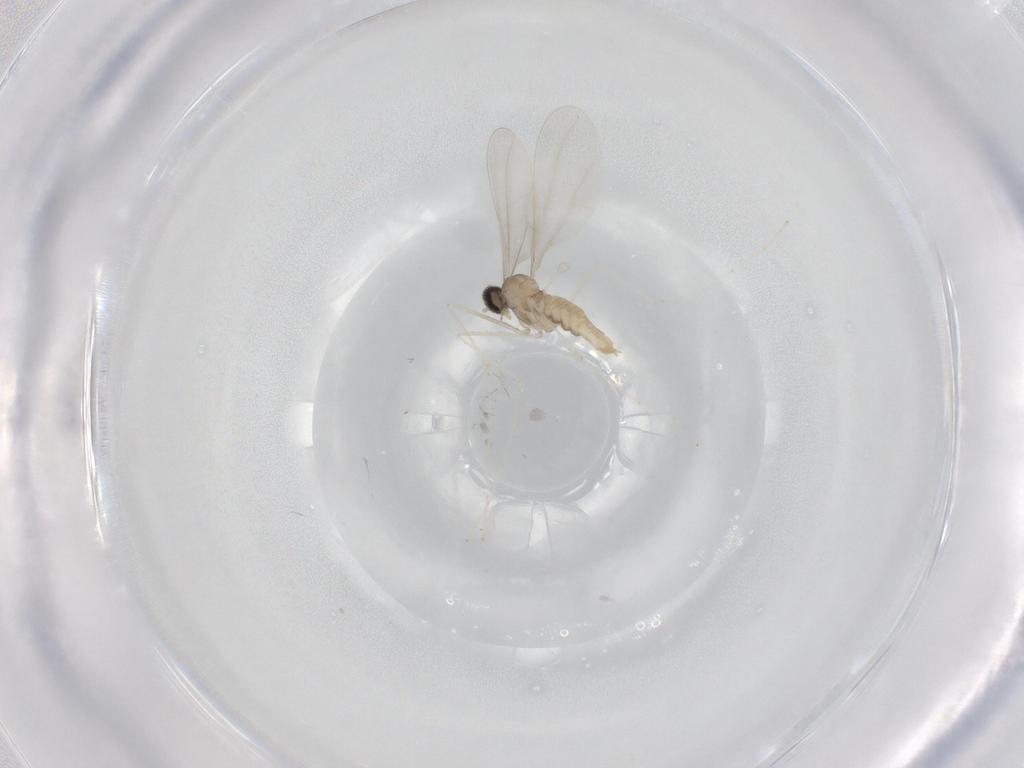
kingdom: Animalia
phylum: Arthropoda
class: Insecta
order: Diptera
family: Cecidomyiidae
